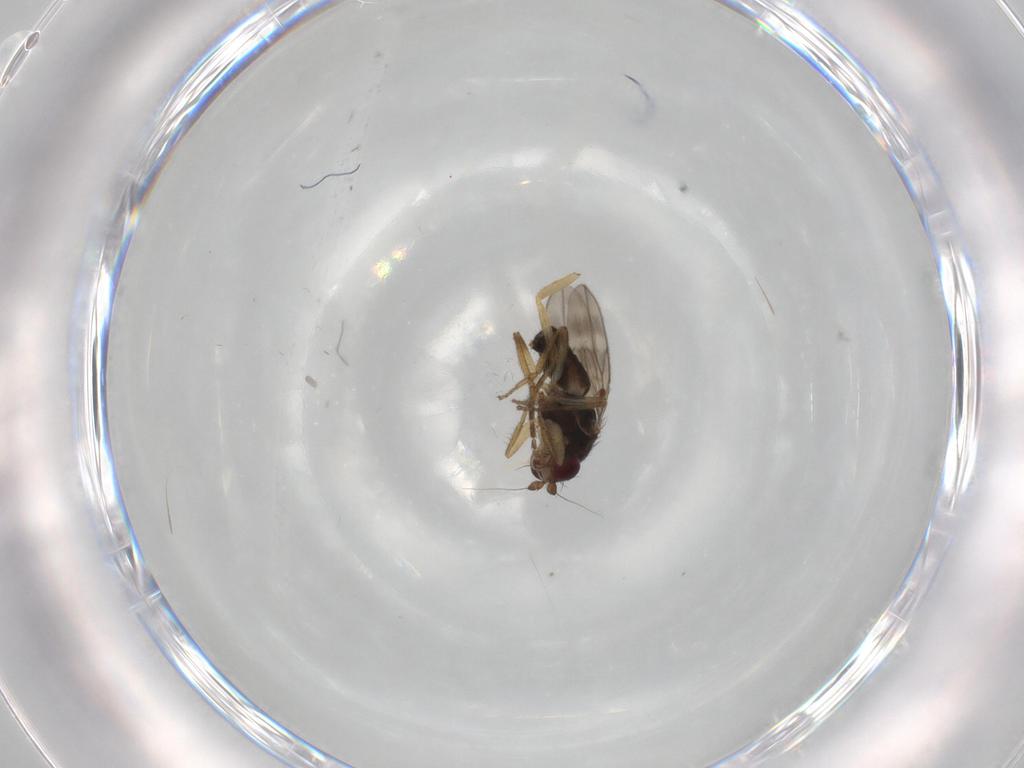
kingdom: Animalia
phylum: Arthropoda
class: Insecta
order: Diptera
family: Sphaeroceridae
